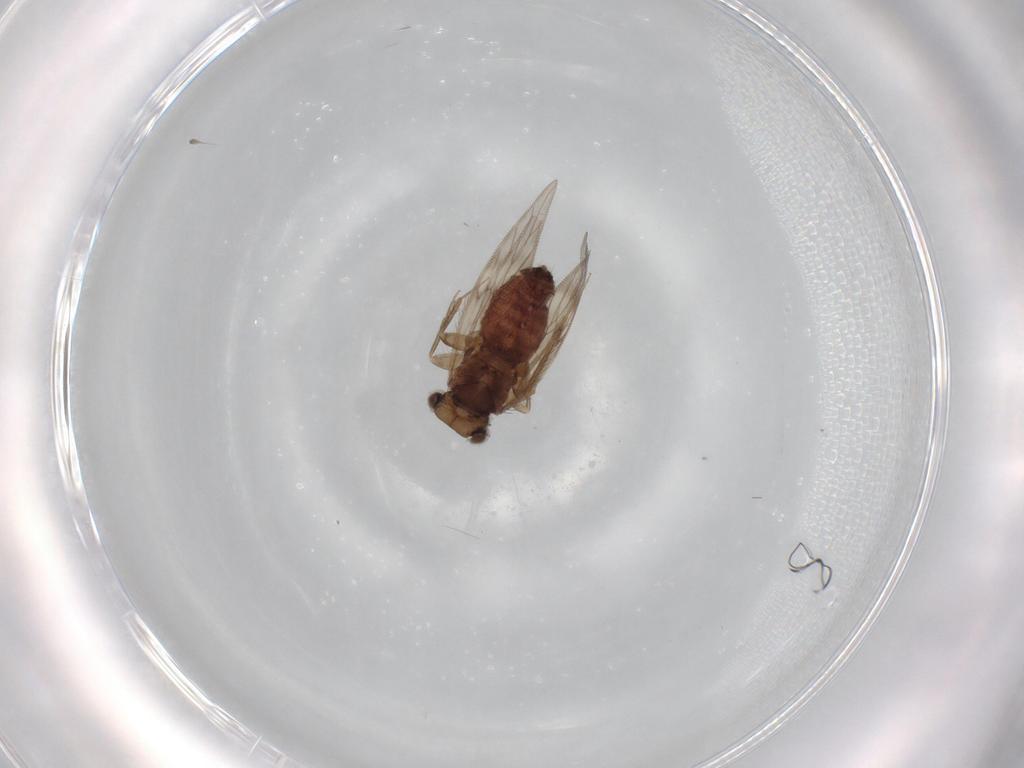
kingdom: Animalia
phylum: Arthropoda
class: Insecta
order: Psocodea
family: Lepidopsocidae
